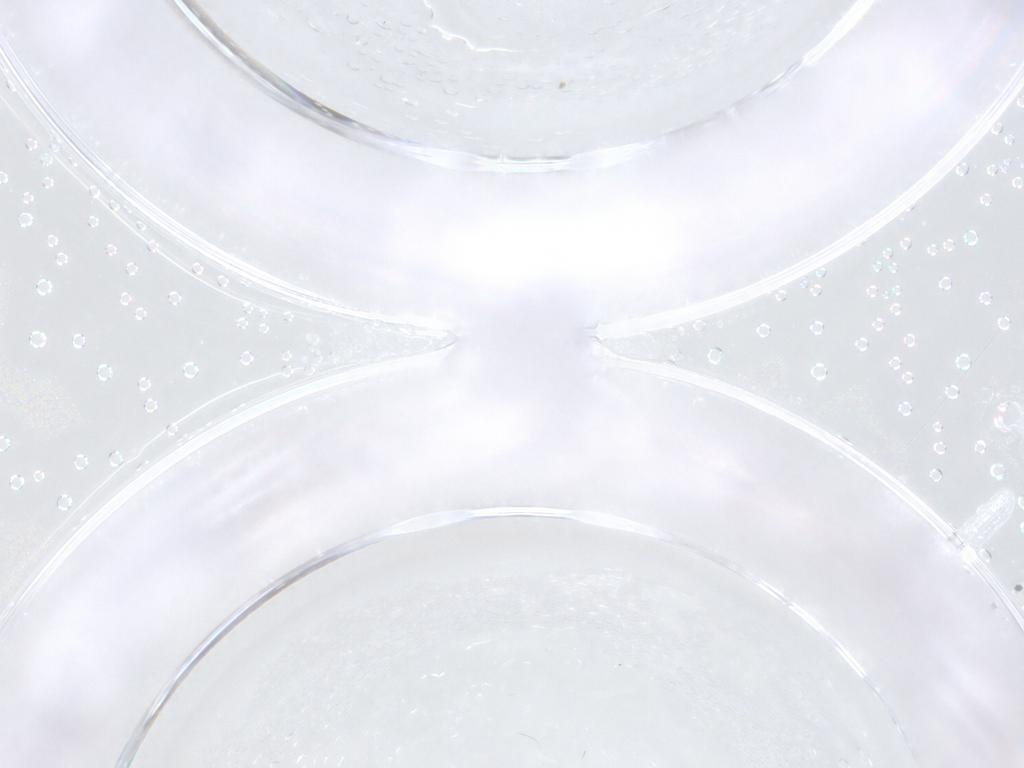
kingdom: Animalia
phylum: Arthropoda
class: Insecta
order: Diptera
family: Psychodidae
